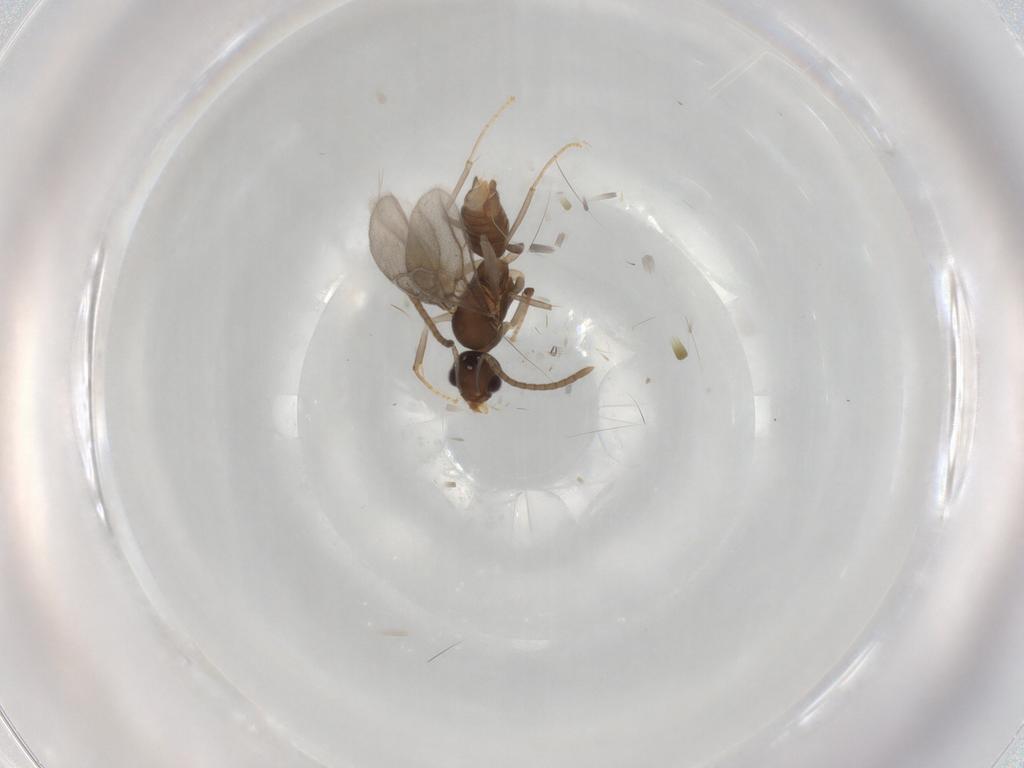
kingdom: Animalia
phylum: Arthropoda
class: Insecta
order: Hymenoptera
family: Formicidae
